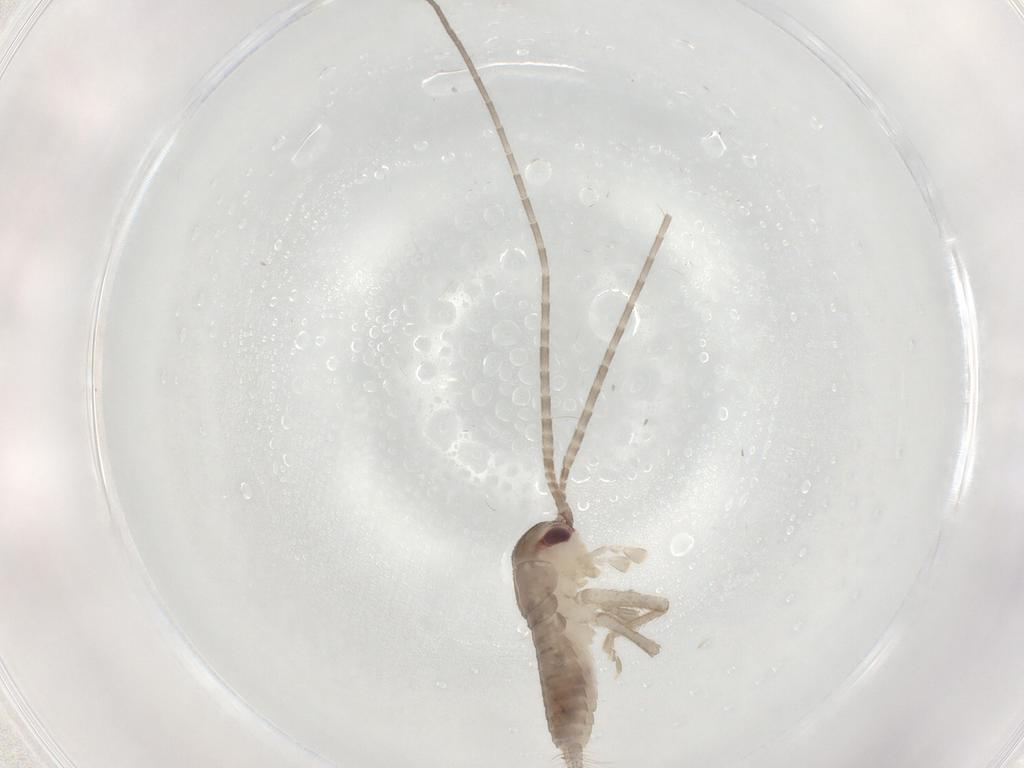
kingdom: Animalia
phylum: Arthropoda
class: Insecta
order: Orthoptera
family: Gryllidae
